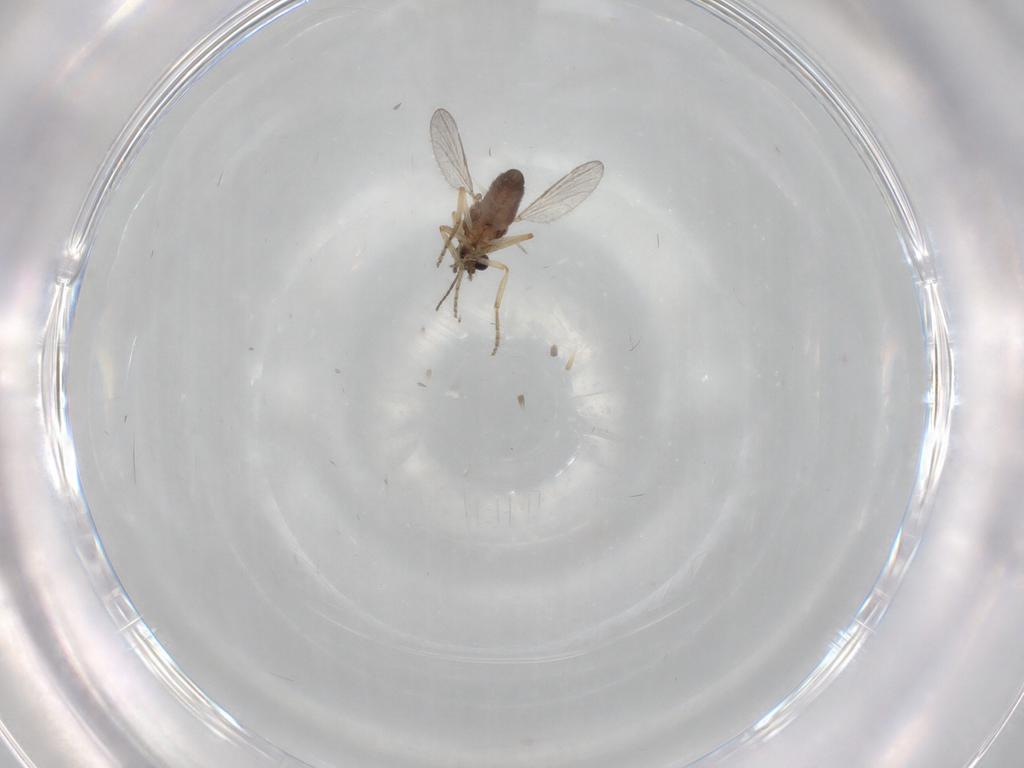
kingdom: Animalia
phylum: Arthropoda
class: Insecta
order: Diptera
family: Ceratopogonidae
